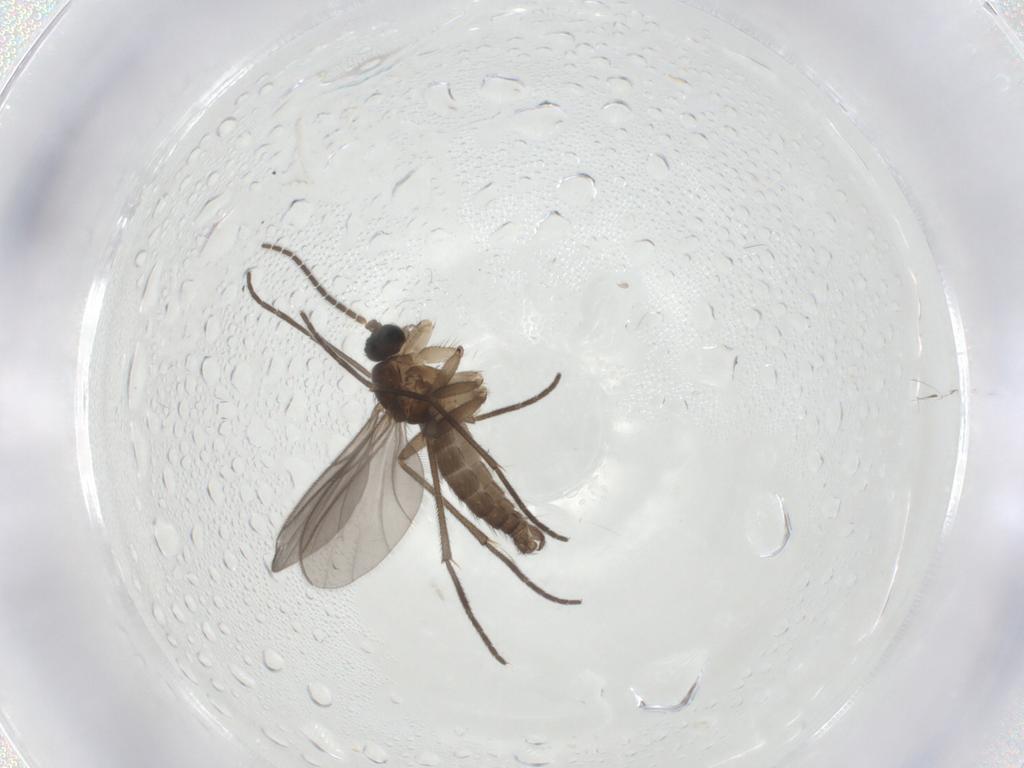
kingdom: Animalia
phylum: Arthropoda
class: Insecta
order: Diptera
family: Sciaridae
